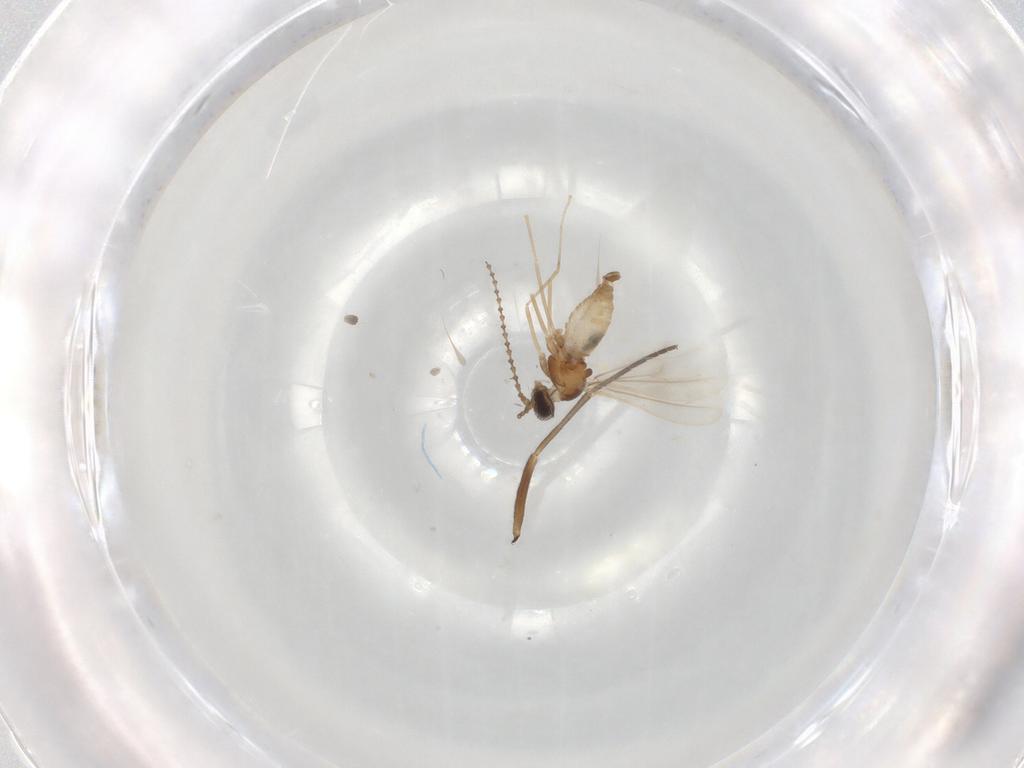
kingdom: Animalia
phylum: Arthropoda
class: Insecta
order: Diptera
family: Sciaridae
